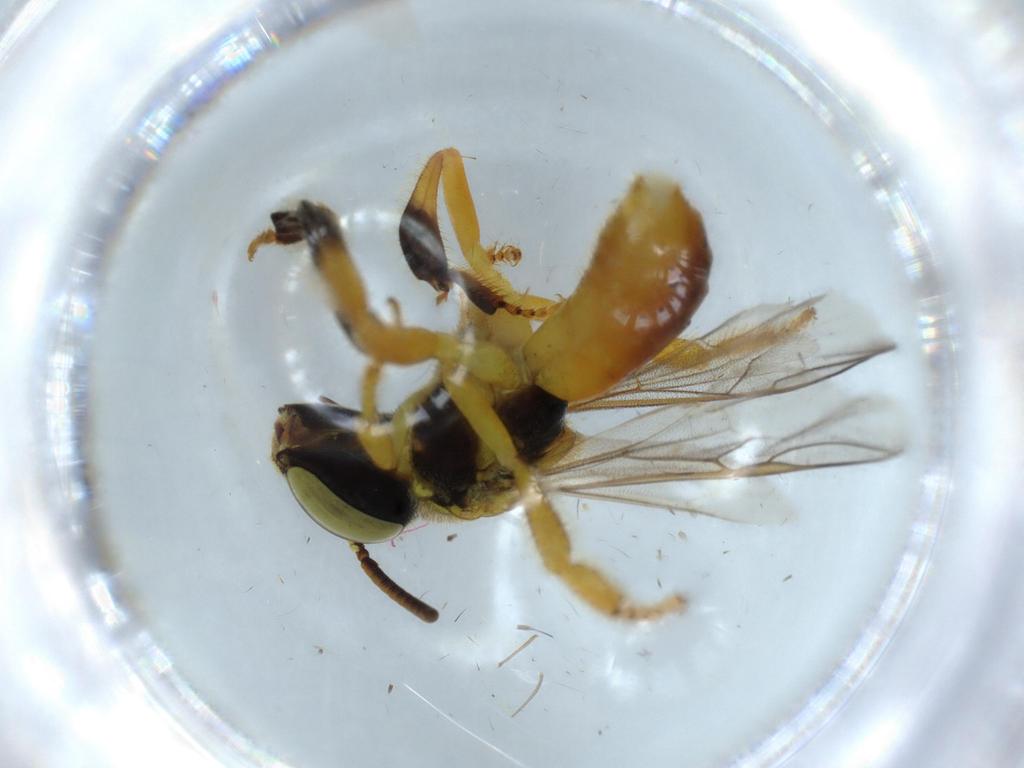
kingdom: Animalia
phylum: Arthropoda
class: Insecta
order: Hymenoptera
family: Apidae
